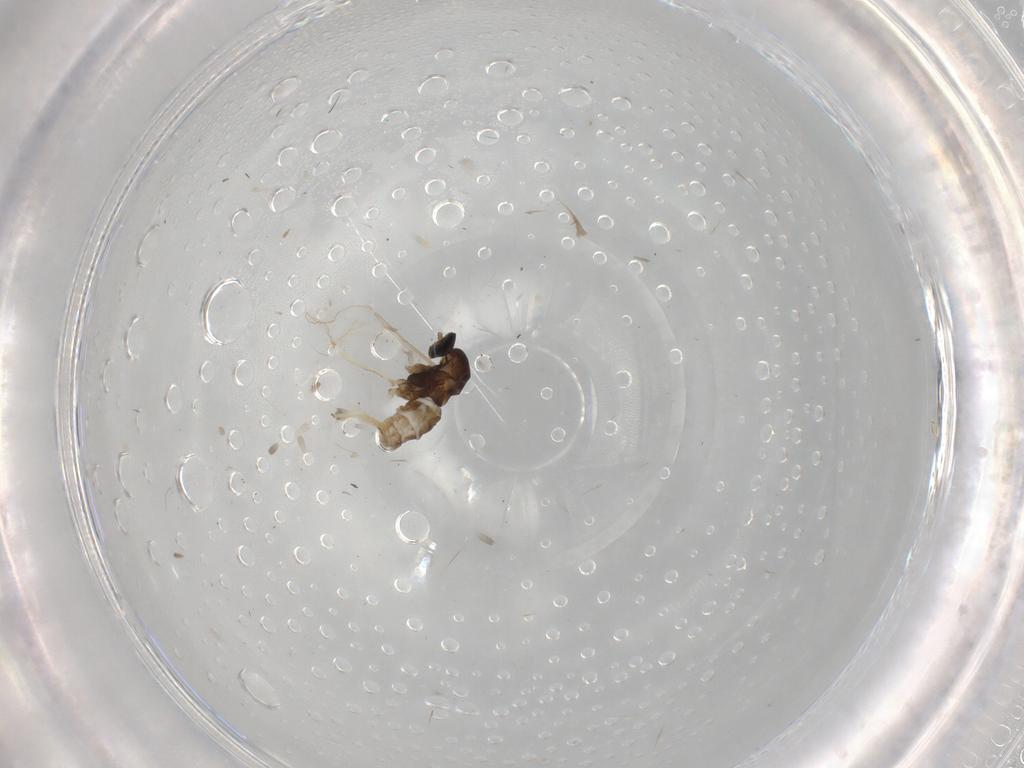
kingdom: Animalia
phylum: Arthropoda
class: Insecta
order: Diptera
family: Cecidomyiidae
